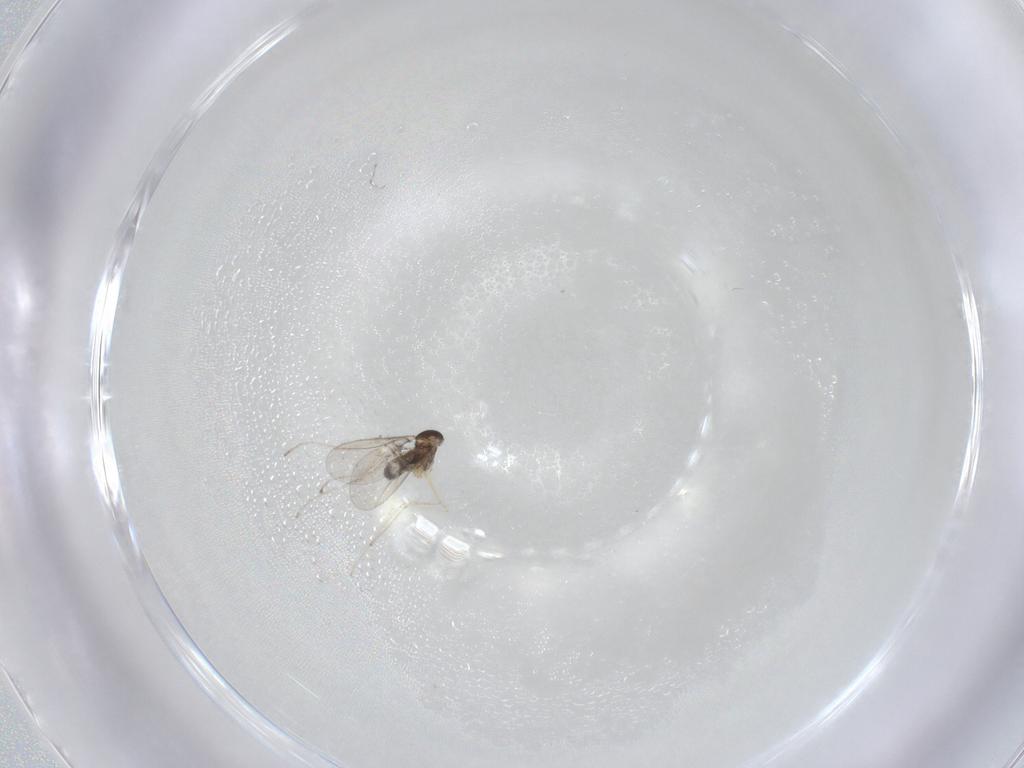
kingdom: Animalia
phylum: Arthropoda
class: Insecta
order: Diptera
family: Cecidomyiidae
